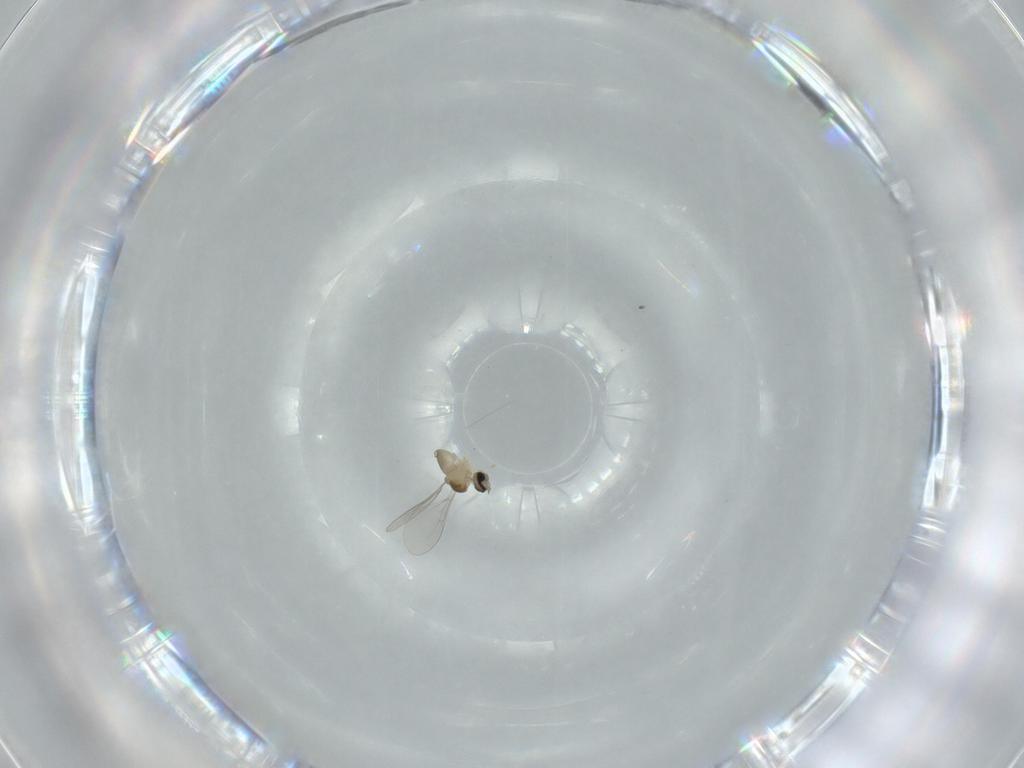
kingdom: Animalia
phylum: Arthropoda
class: Insecta
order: Diptera
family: Cecidomyiidae
